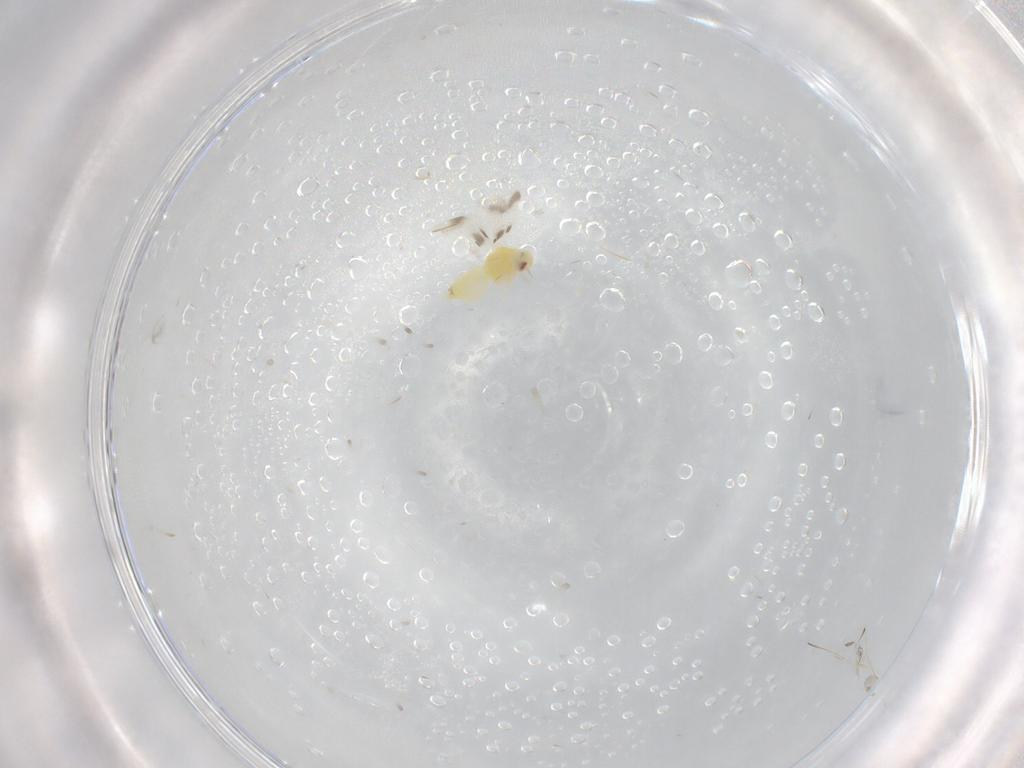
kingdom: Animalia
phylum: Arthropoda
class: Insecta
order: Hemiptera
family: Aleyrodidae
